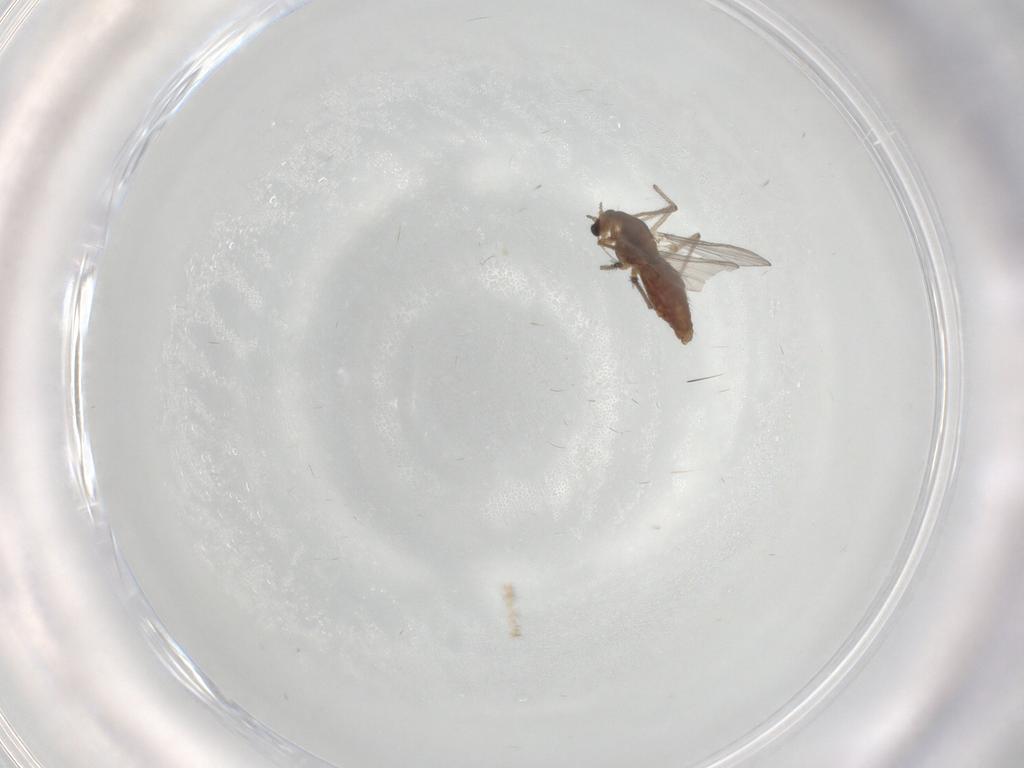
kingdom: Animalia
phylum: Arthropoda
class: Insecta
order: Diptera
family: Chironomidae
